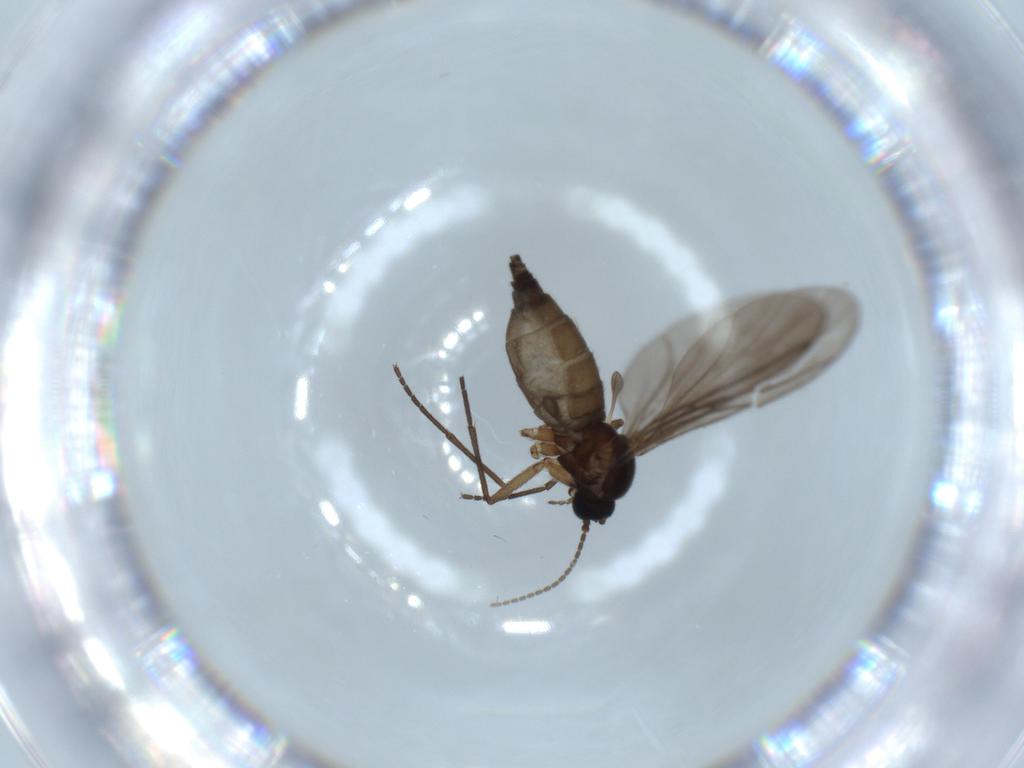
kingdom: Animalia
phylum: Arthropoda
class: Insecta
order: Diptera
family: Sciaridae
